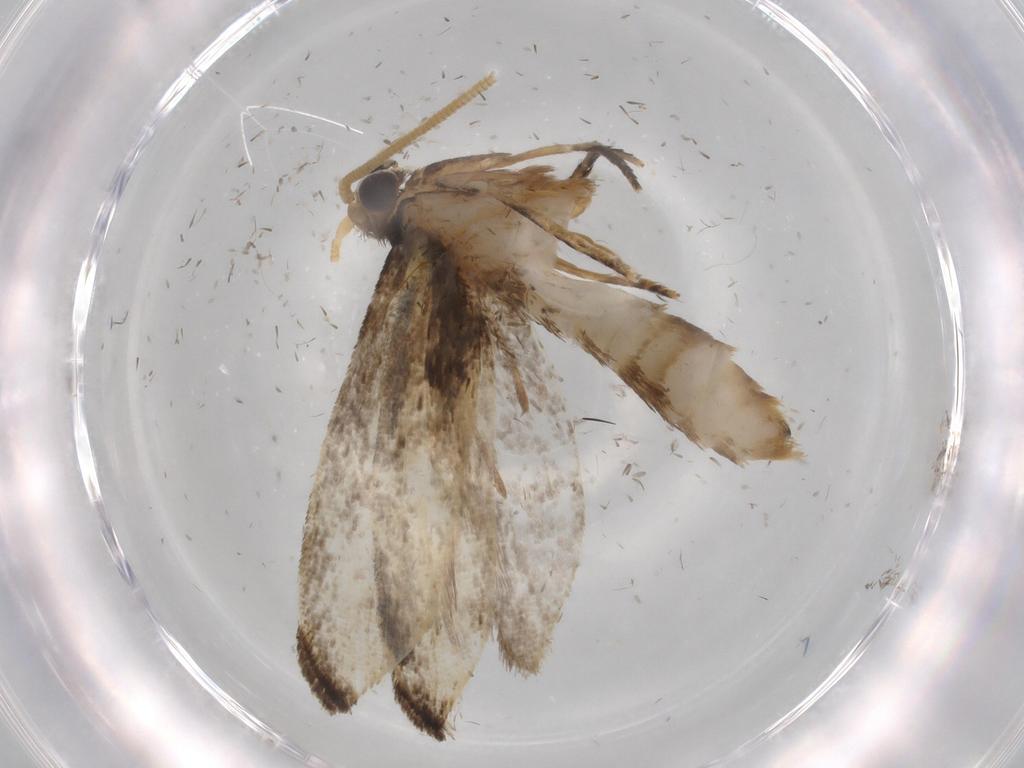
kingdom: Animalia
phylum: Arthropoda
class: Insecta
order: Lepidoptera
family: Tineidae
